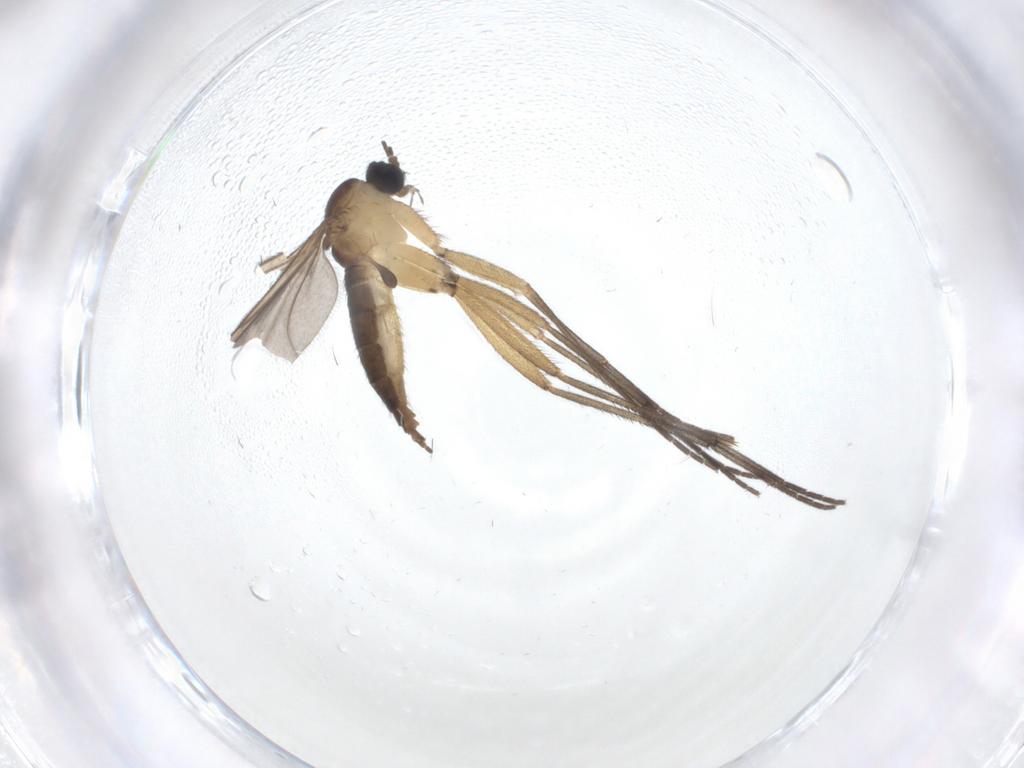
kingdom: Animalia
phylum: Arthropoda
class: Insecta
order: Diptera
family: Sciaridae
